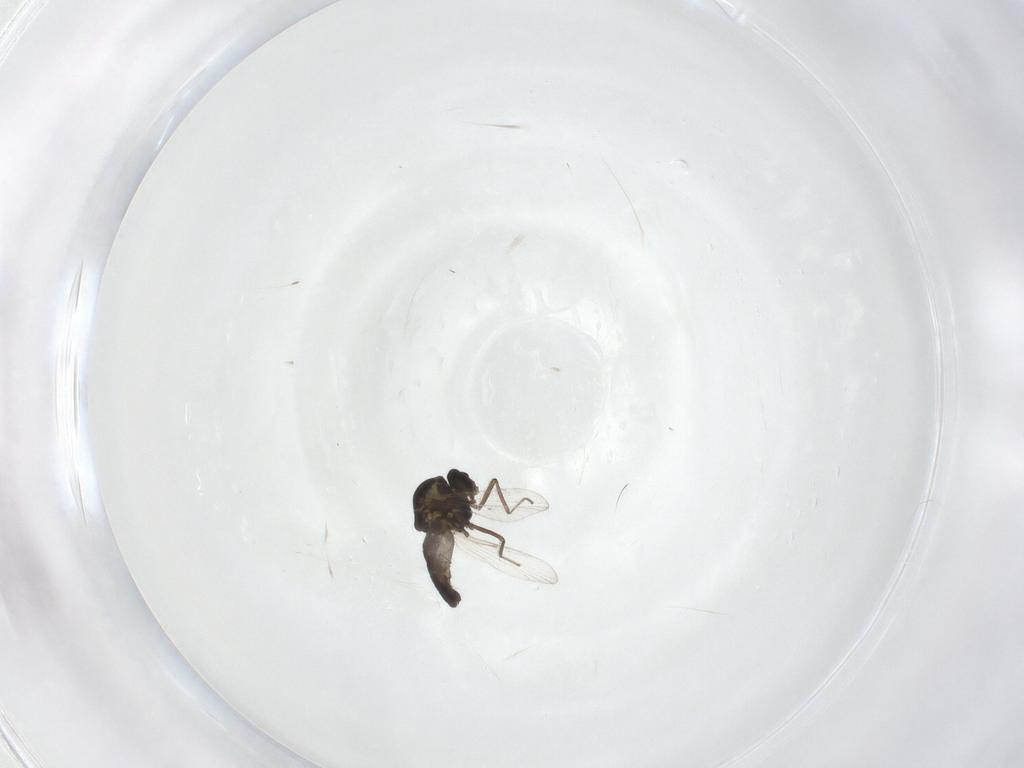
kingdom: Animalia
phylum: Arthropoda
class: Insecta
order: Diptera
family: Ceratopogonidae
